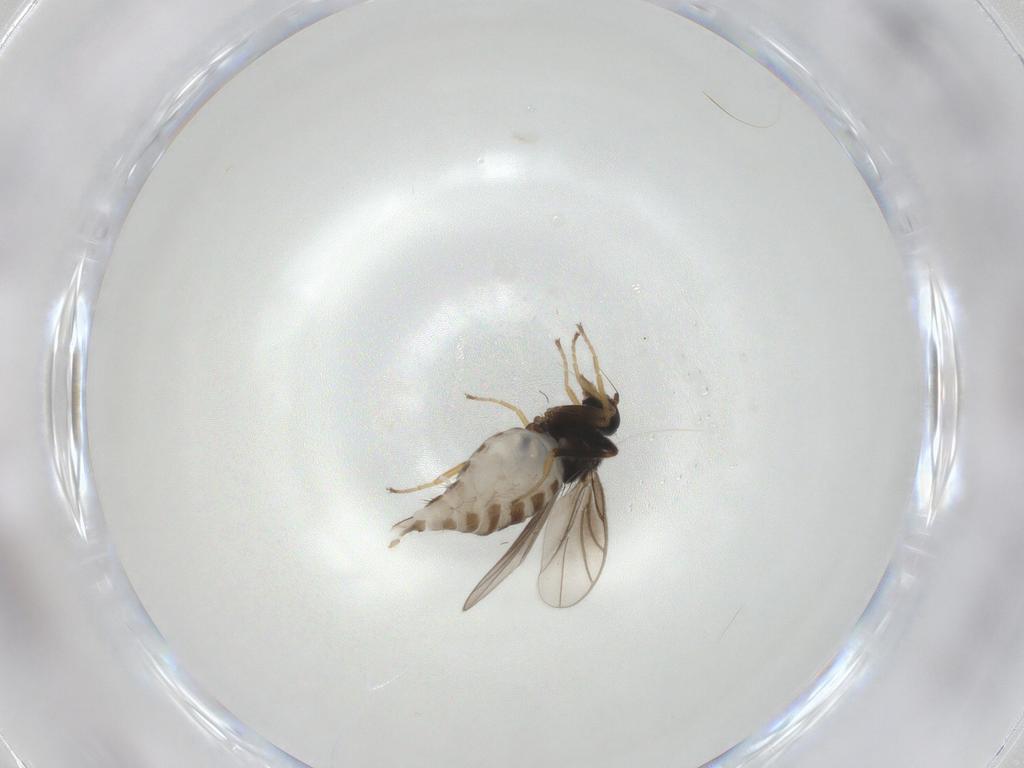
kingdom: Animalia
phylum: Arthropoda
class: Insecta
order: Diptera
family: Hybotidae
